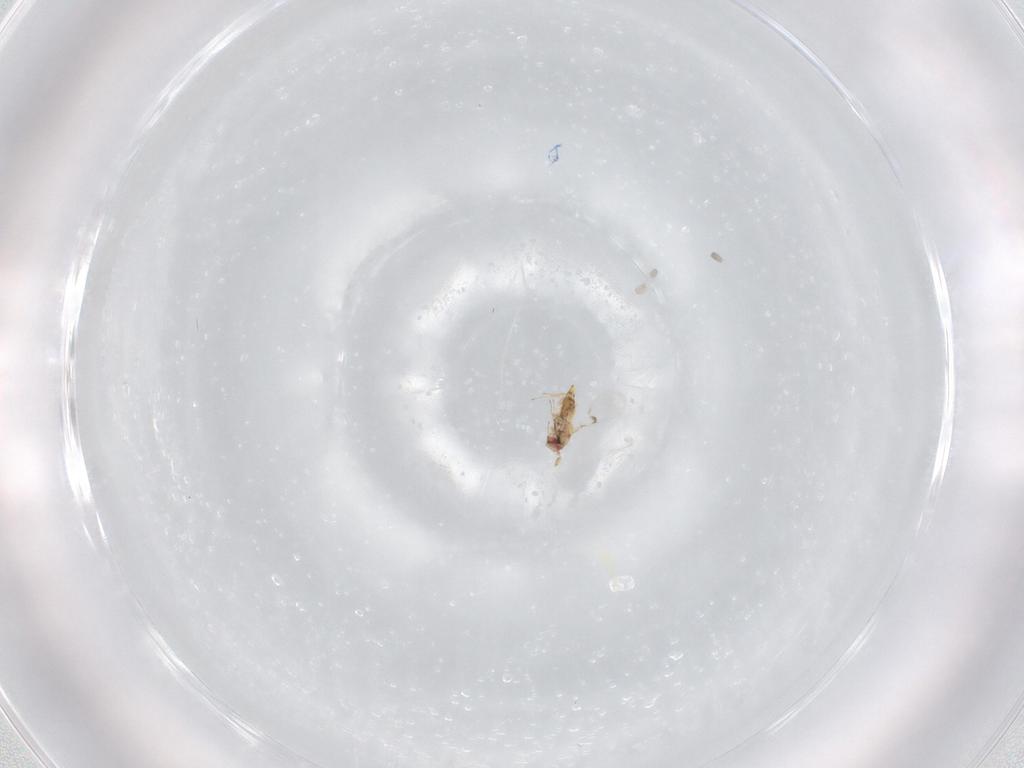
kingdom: Animalia
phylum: Arthropoda
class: Insecta
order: Hymenoptera
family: Trichogrammatidae
